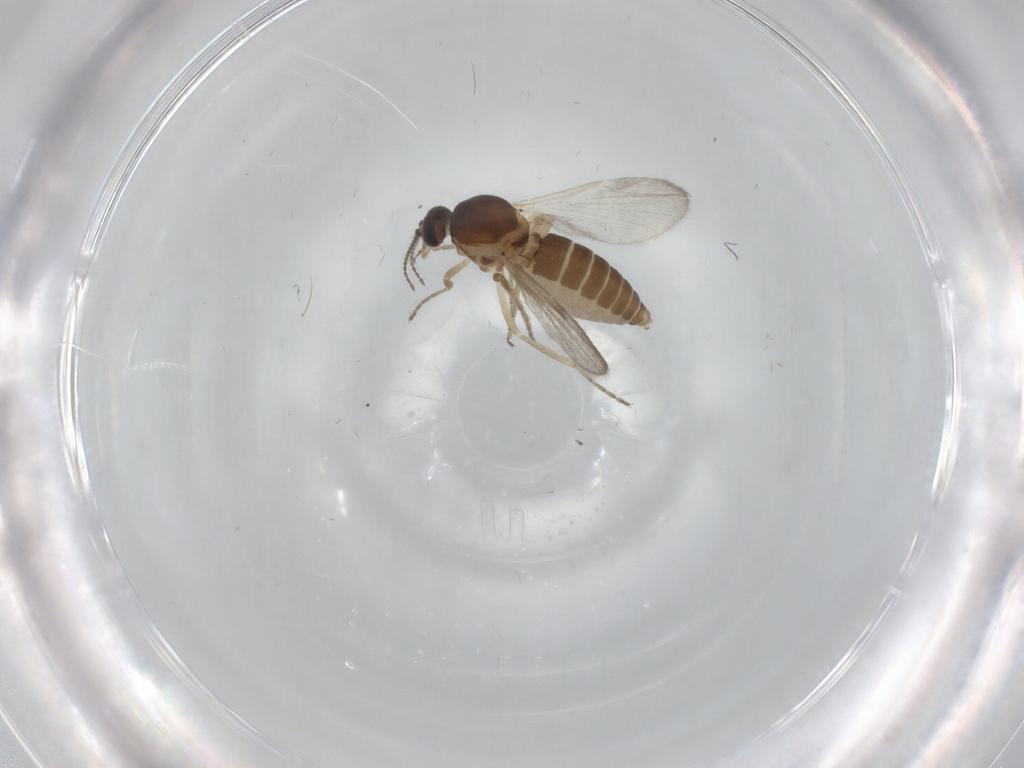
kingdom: Animalia
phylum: Arthropoda
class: Insecta
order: Diptera
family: Ceratopogonidae
